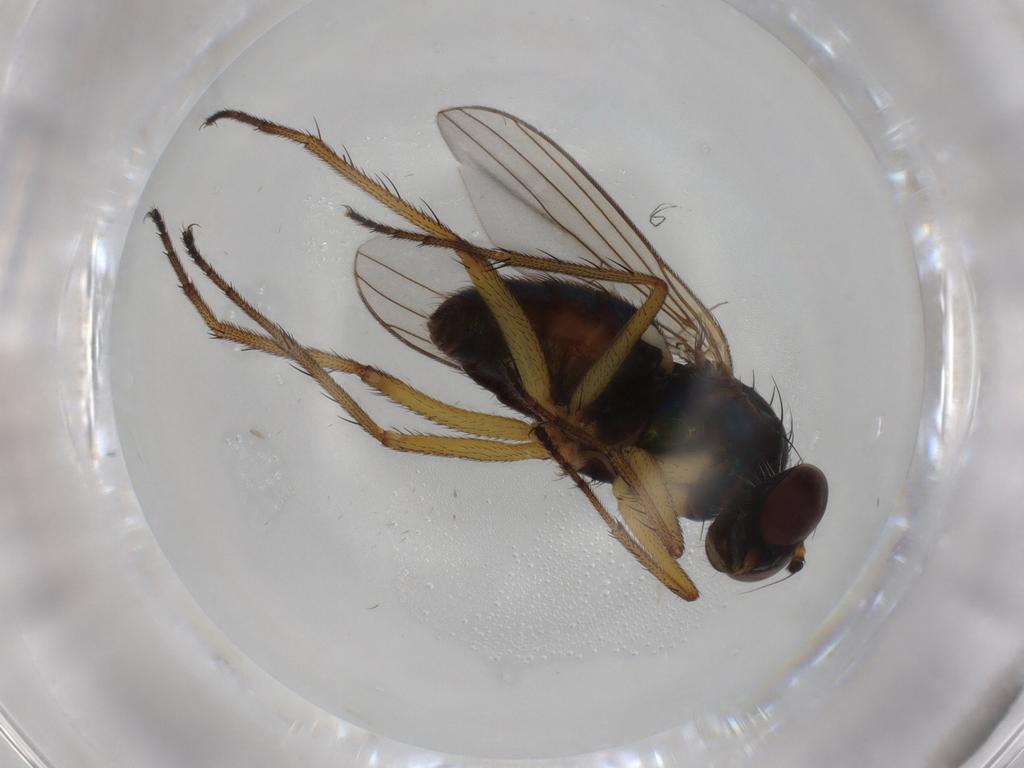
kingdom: Animalia
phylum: Arthropoda
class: Insecta
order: Diptera
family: Chironomidae
